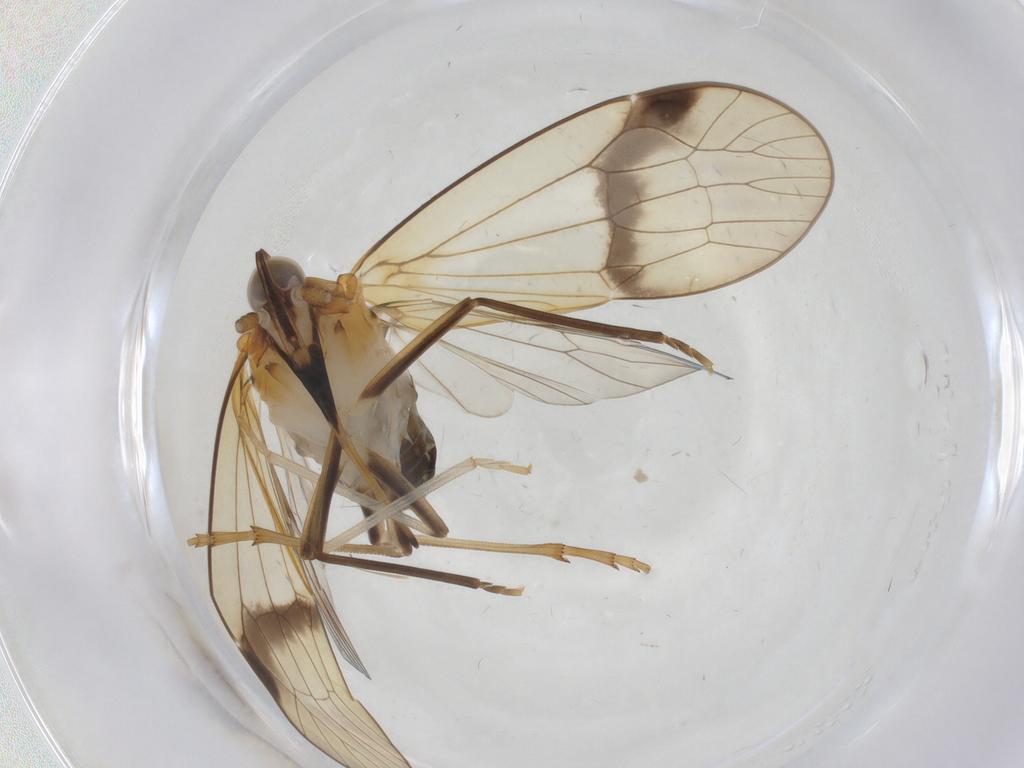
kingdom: Animalia
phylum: Arthropoda
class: Insecta
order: Hemiptera
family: Kinnaridae
